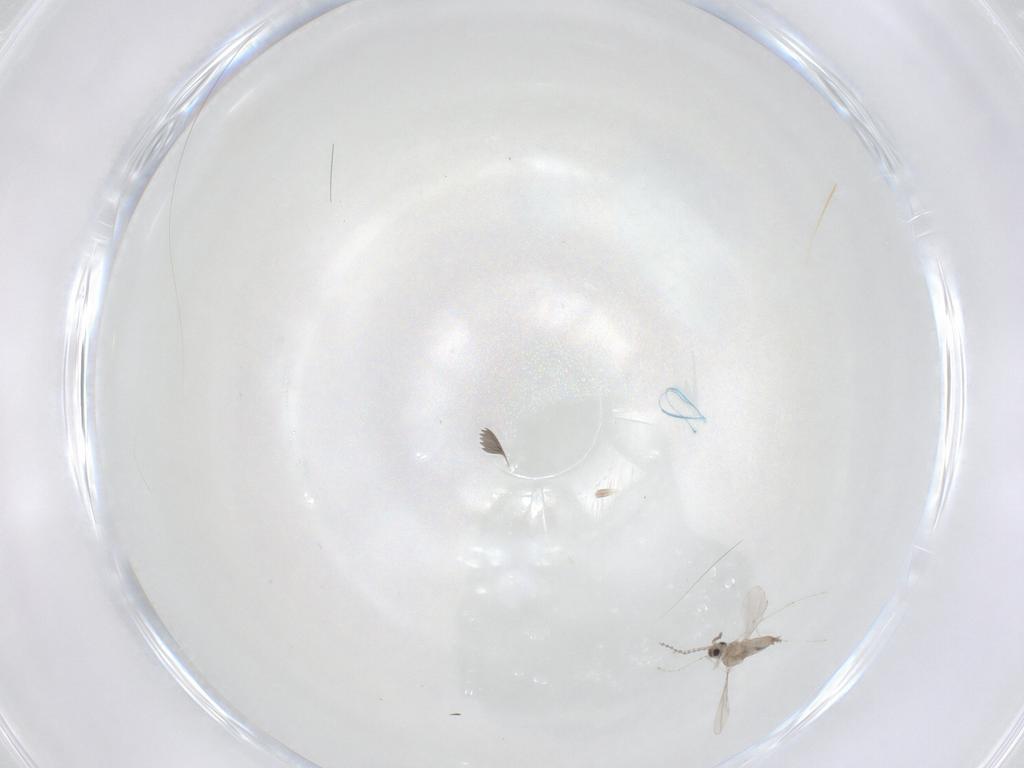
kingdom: Animalia
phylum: Arthropoda
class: Insecta
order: Diptera
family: Cecidomyiidae
